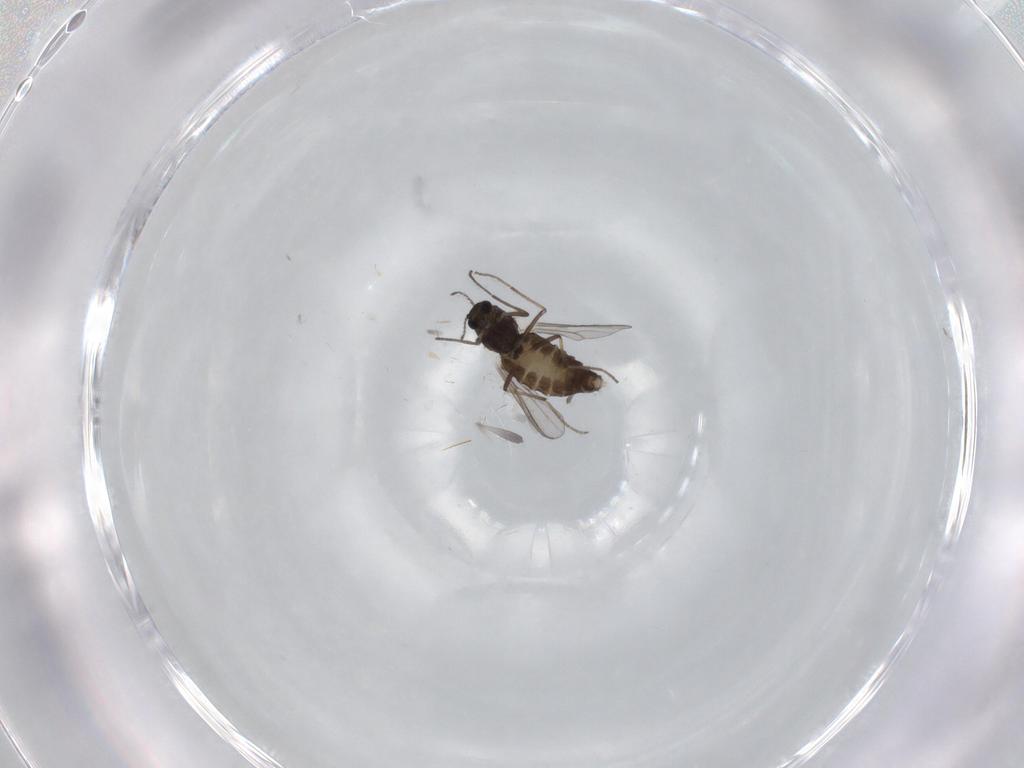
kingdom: Animalia
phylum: Arthropoda
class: Insecta
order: Diptera
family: Chironomidae
